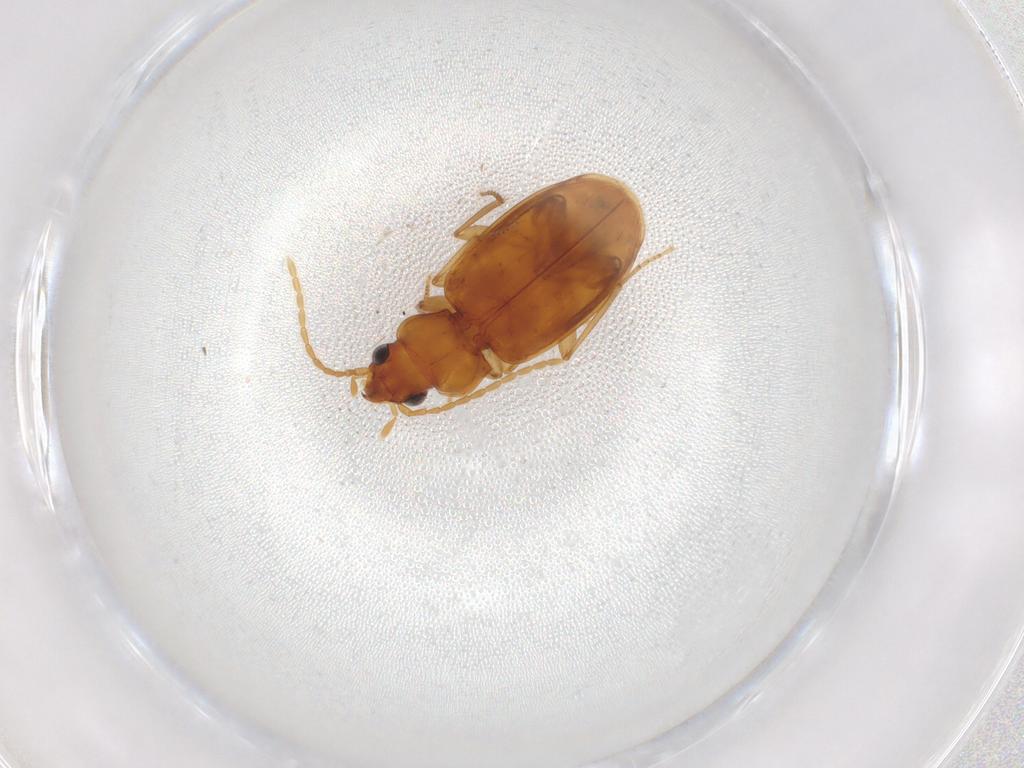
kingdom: Animalia
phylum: Arthropoda
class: Insecta
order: Coleoptera
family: Carabidae
